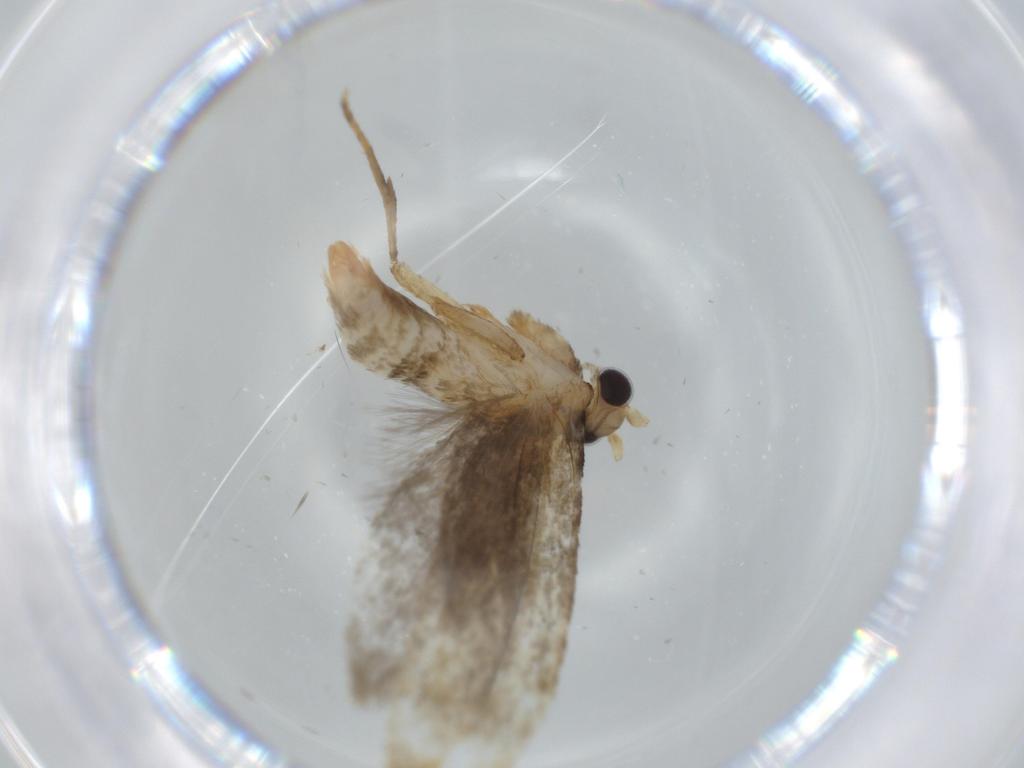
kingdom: Animalia
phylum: Arthropoda
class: Insecta
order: Lepidoptera
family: Tineidae
